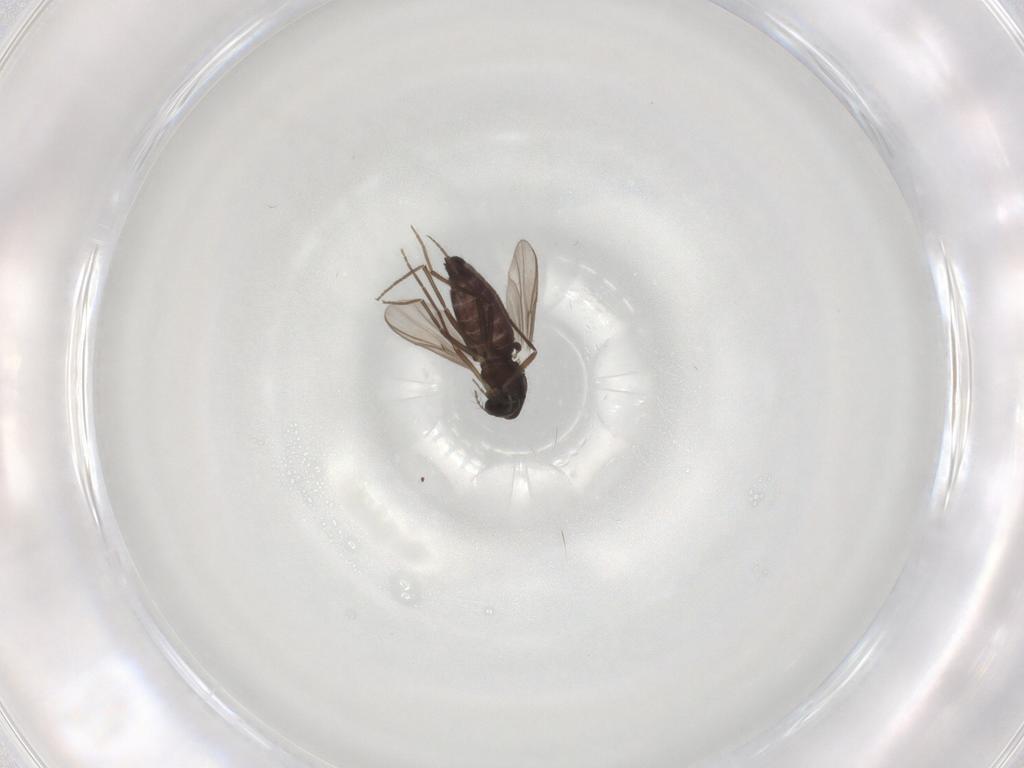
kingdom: Animalia
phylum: Arthropoda
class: Insecta
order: Diptera
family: Chironomidae
